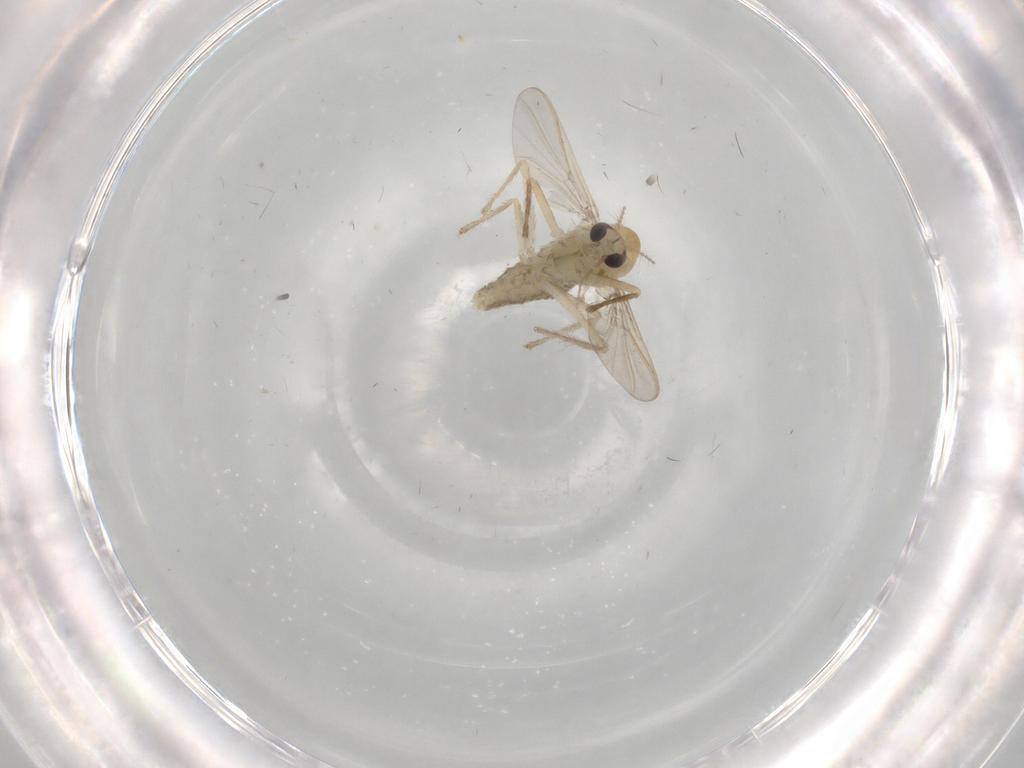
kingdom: Animalia
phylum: Arthropoda
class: Insecta
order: Diptera
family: Chironomidae
